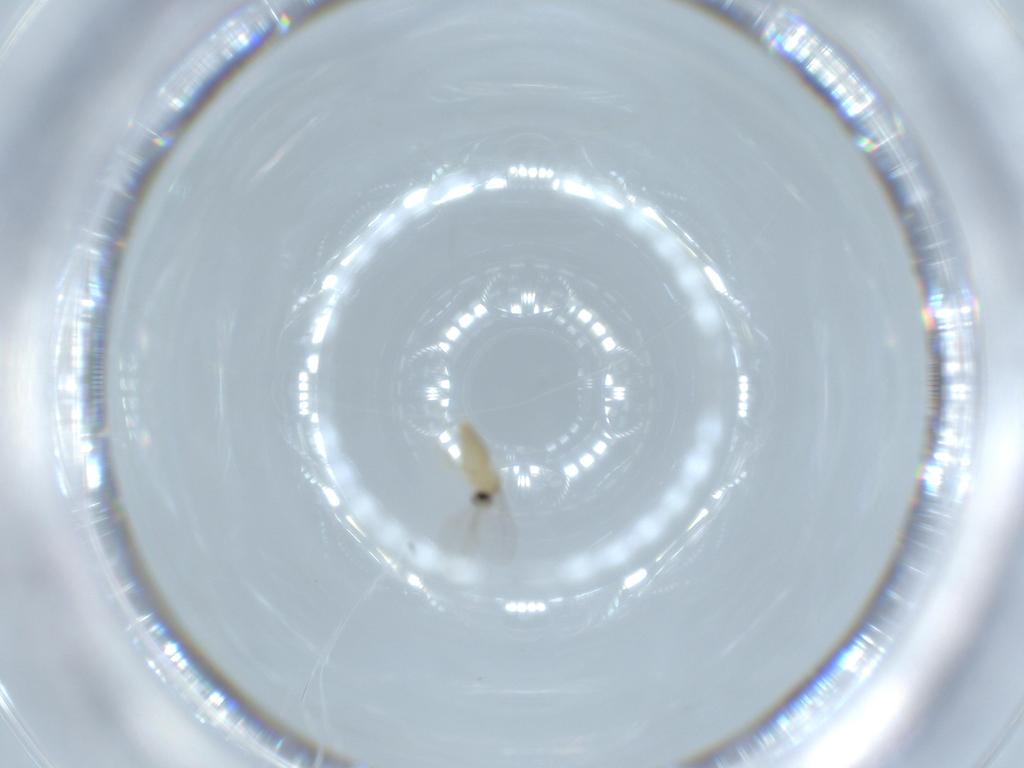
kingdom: Animalia
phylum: Arthropoda
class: Insecta
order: Diptera
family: Cecidomyiidae
